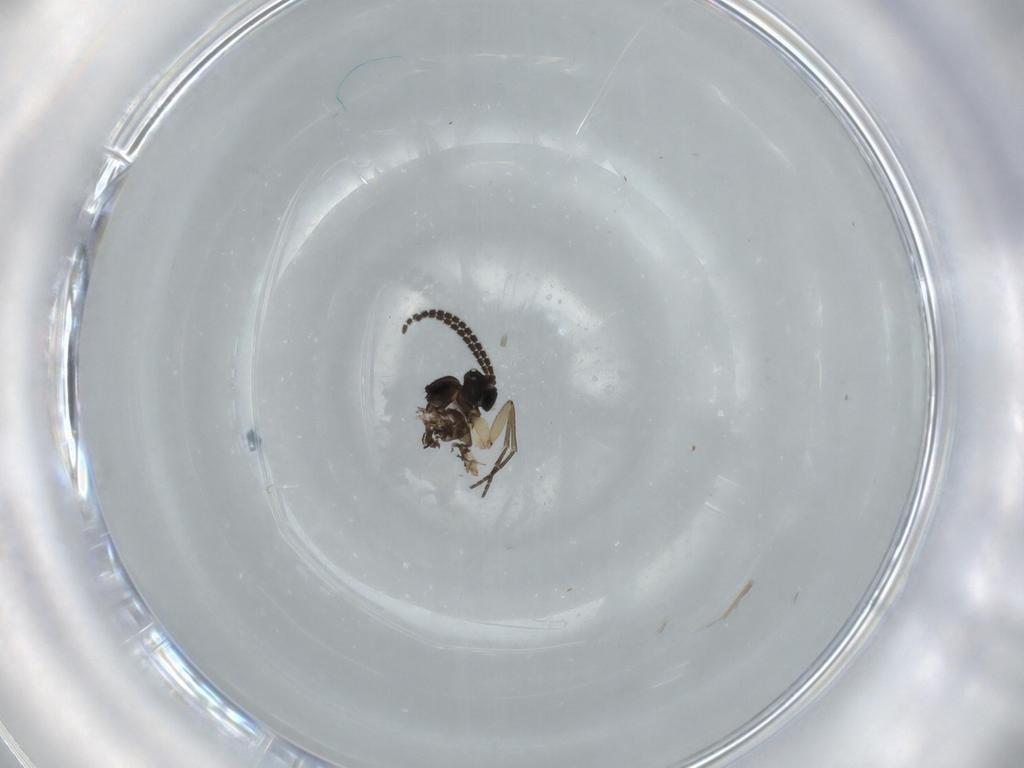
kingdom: Animalia
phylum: Arthropoda
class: Insecta
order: Diptera
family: Sciaridae
